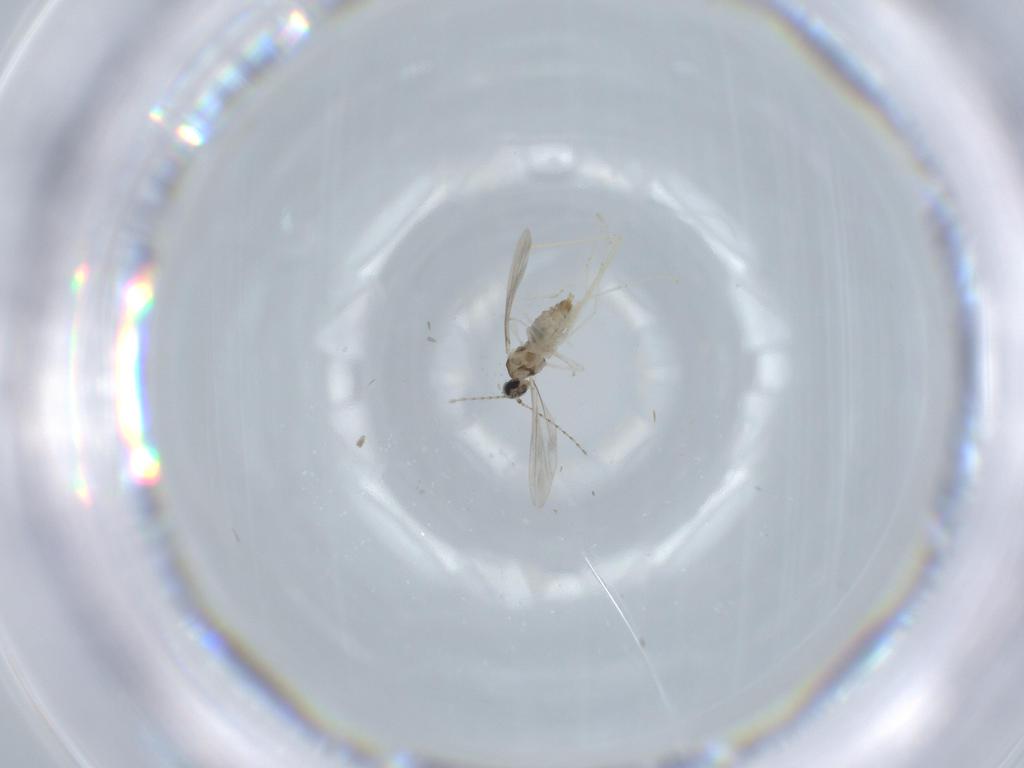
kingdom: Animalia
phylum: Arthropoda
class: Insecta
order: Diptera
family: Cecidomyiidae
